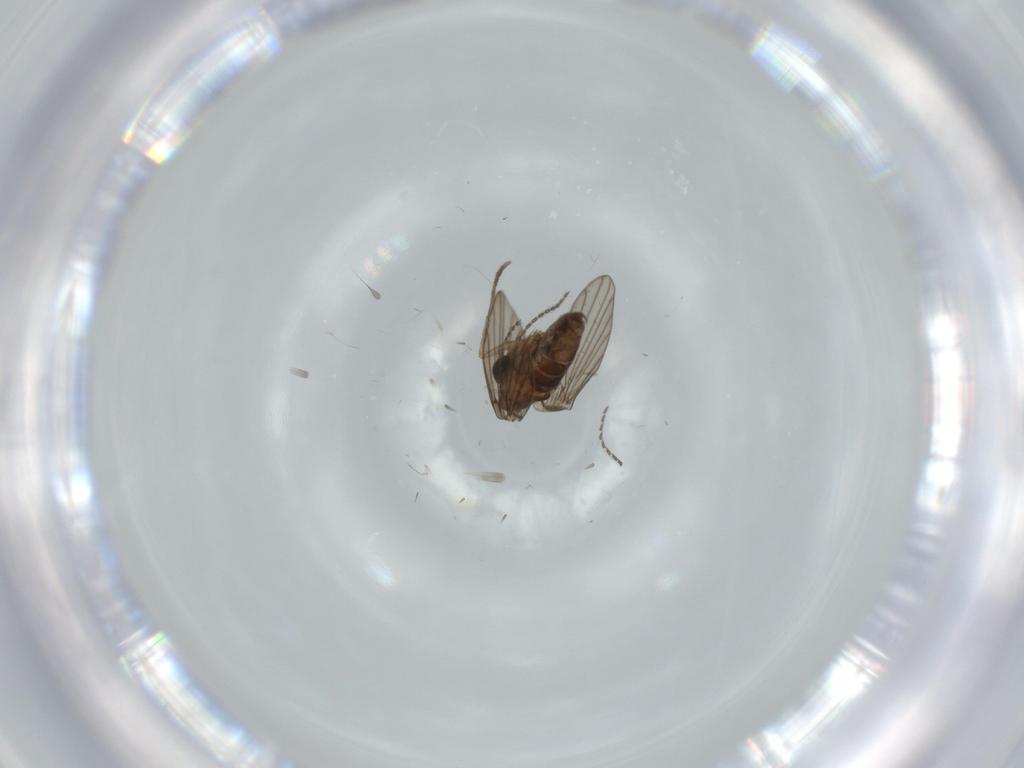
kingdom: Animalia
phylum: Arthropoda
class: Insecta
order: Diptera
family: Psychodidae
